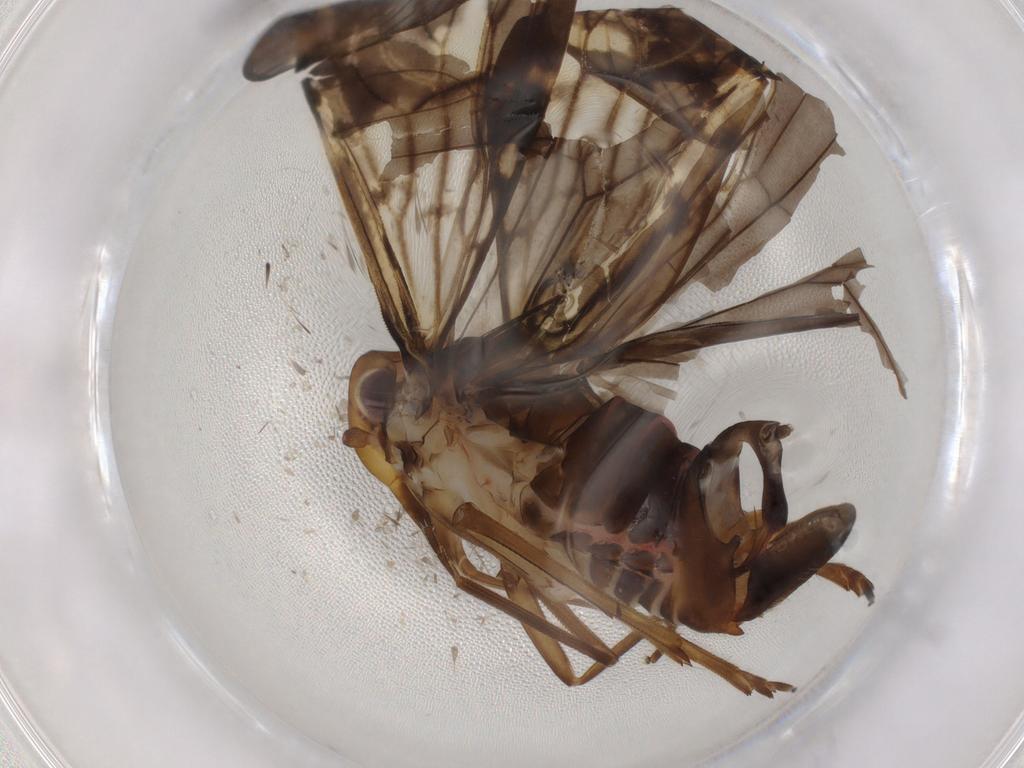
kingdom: Animalia
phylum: Arthropoda
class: Insecta
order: Hemiptera
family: Cixiidae
